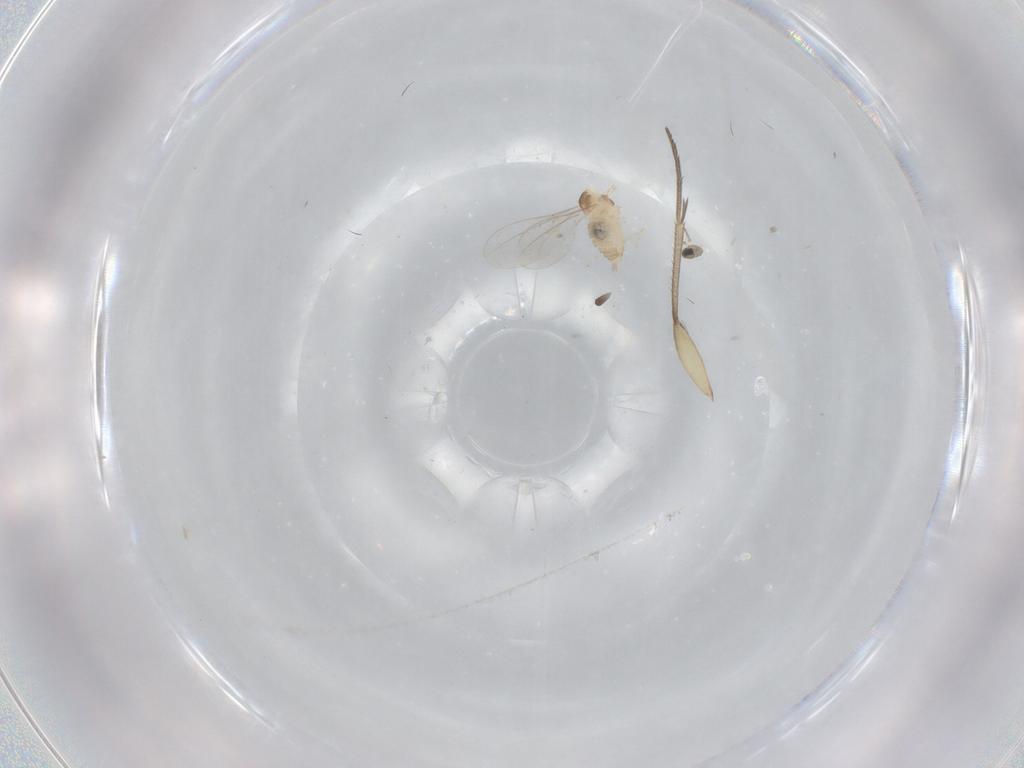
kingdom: Animalia
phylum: Arthropoda
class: Insecta
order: Diptera
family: Cecidomyiidae
